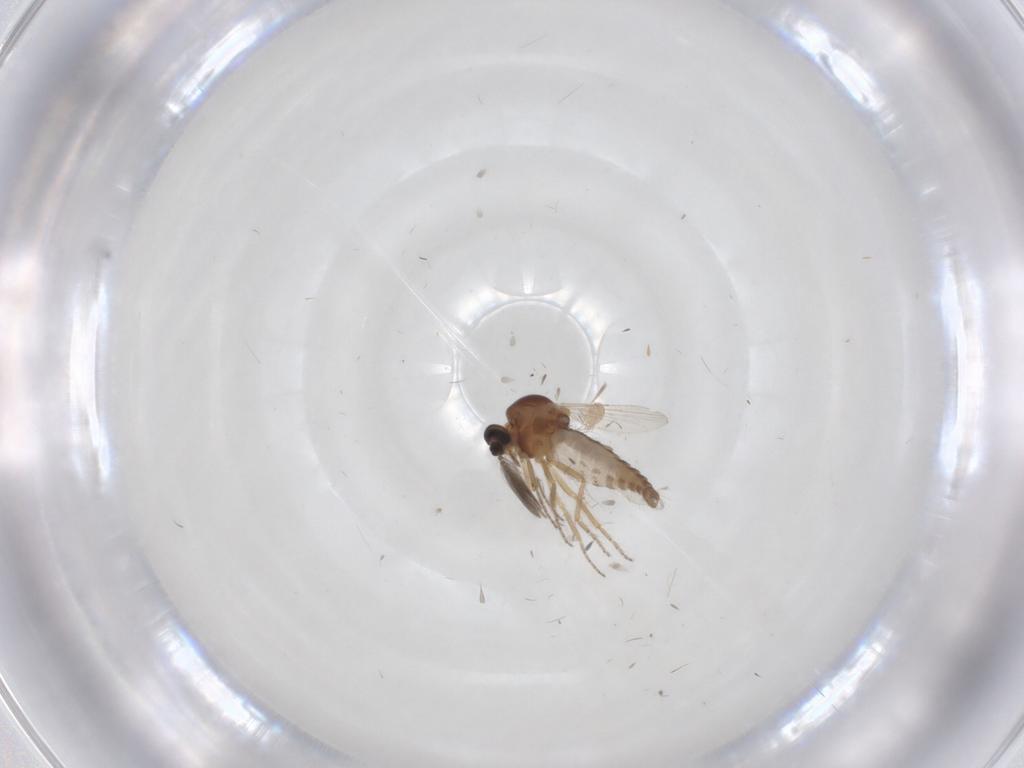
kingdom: Animalia
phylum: Arthropoda
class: Insecta
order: Diptera
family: Ceratopogonidae
